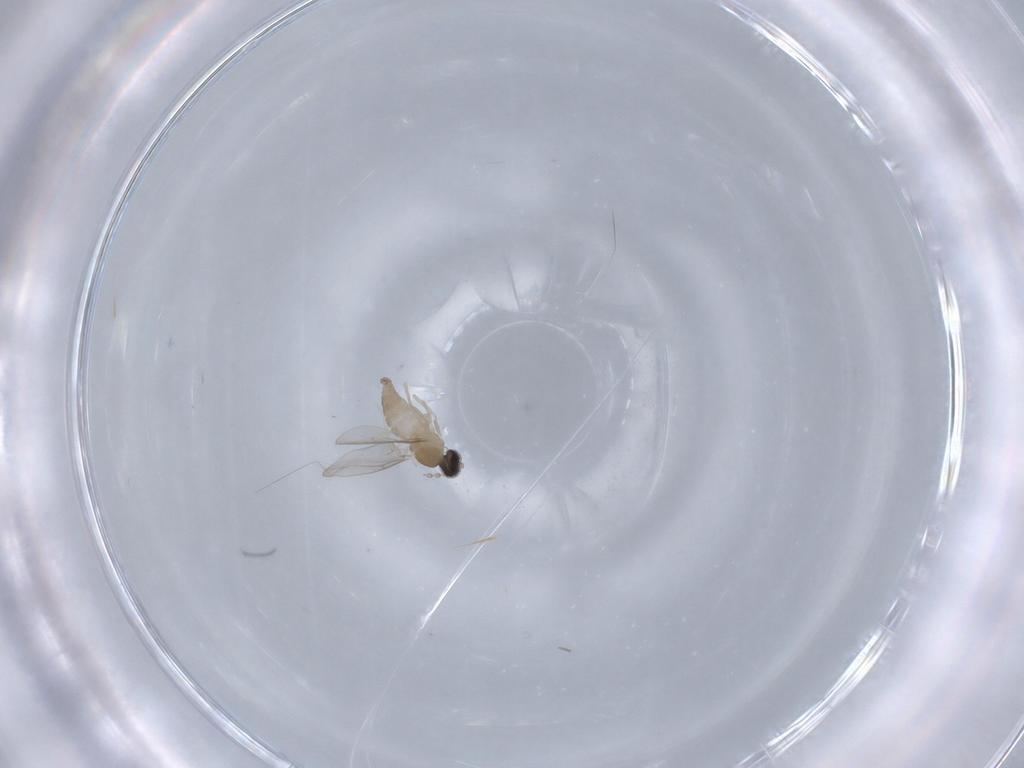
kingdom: Animalia
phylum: Arthropoda
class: Insecta
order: Diptera
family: Cecidomyiidae
